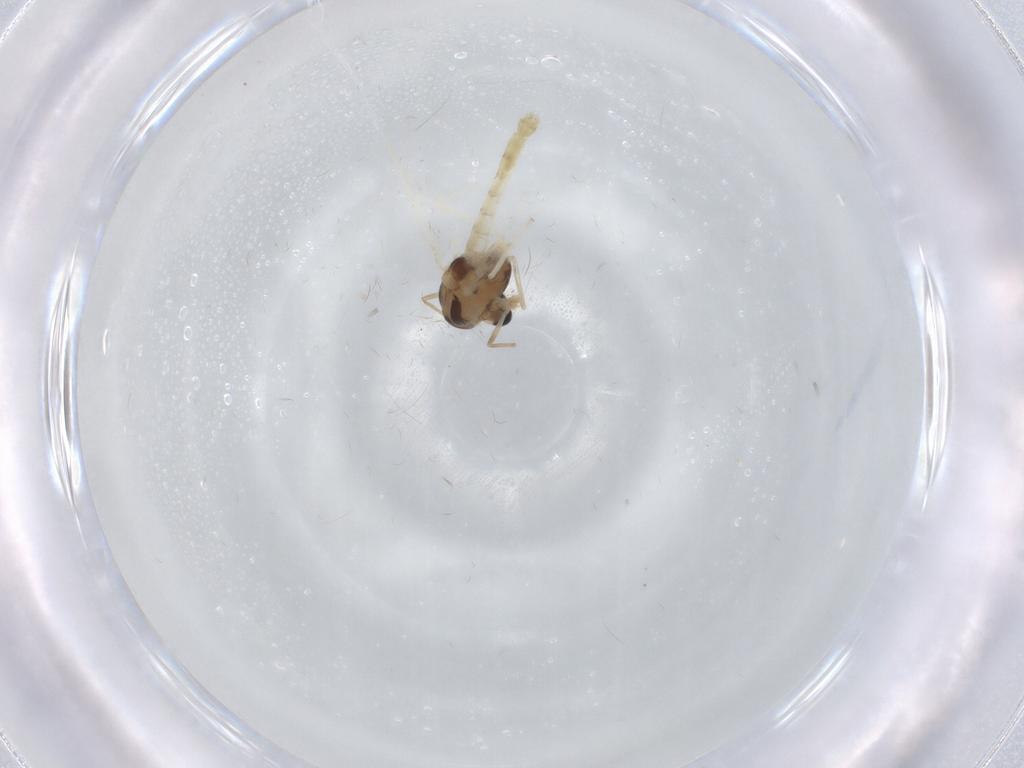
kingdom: Animalia
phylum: Arthropoda
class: Insecta
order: Diptera
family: Chironomidae
